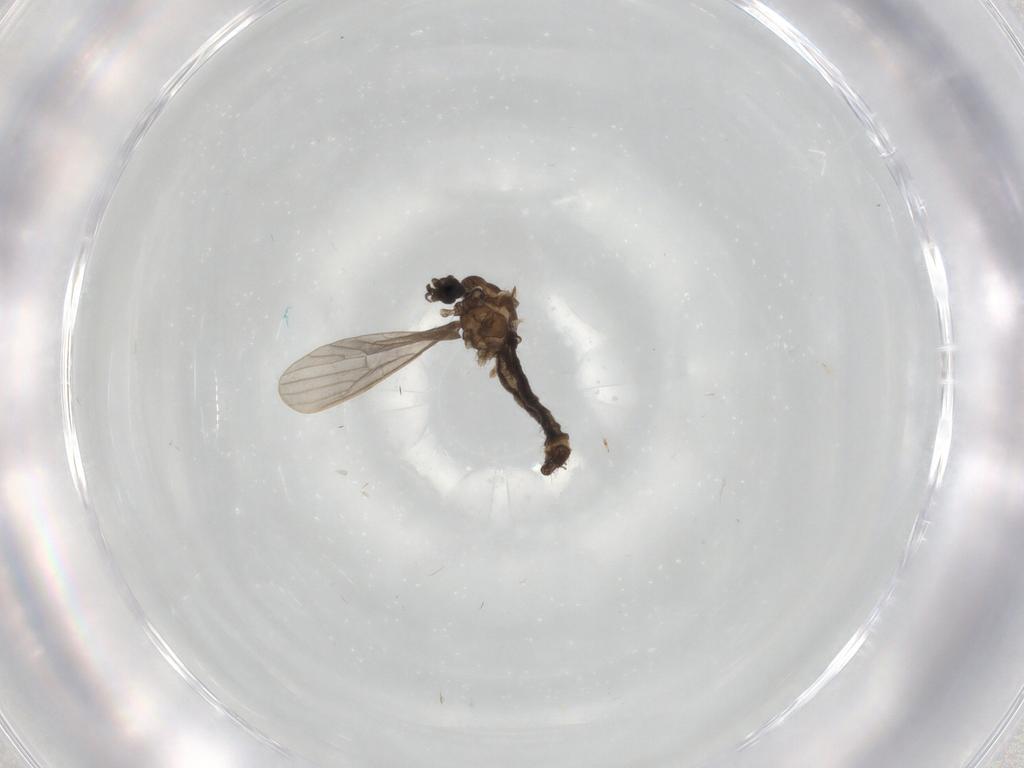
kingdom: Animalia
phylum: Arthropoda
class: Insecta
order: Diptera
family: Limoniidae
